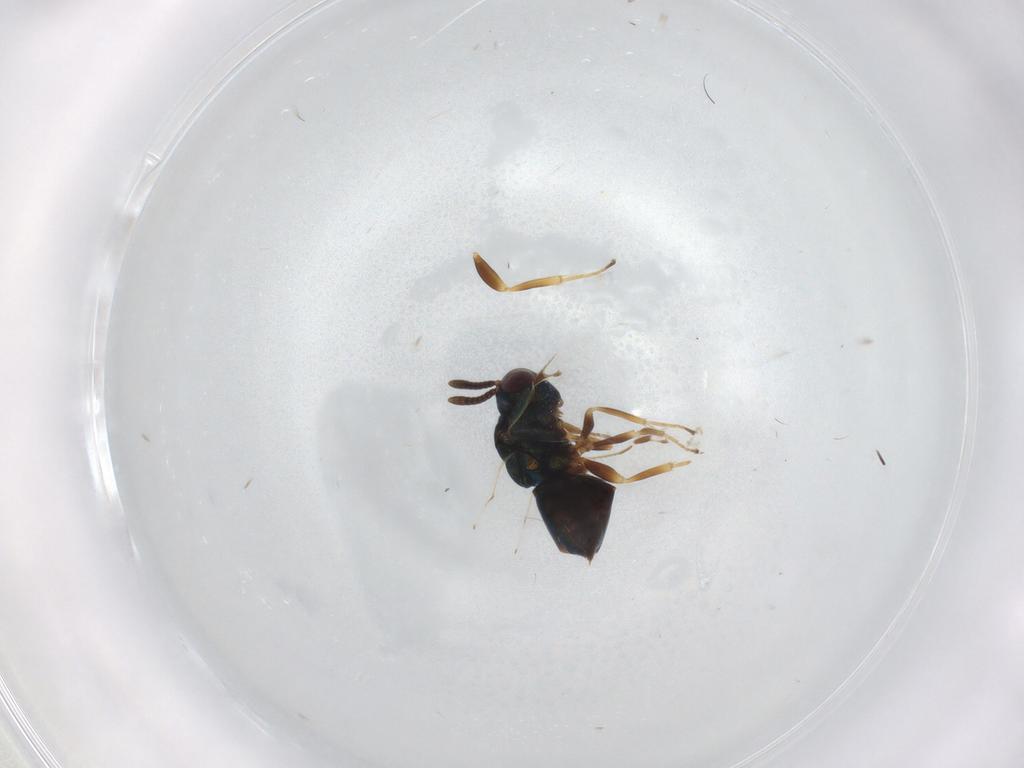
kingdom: Animalia
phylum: Arthropoda
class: Insecta
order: Hymenoptera
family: Pteromalidae
